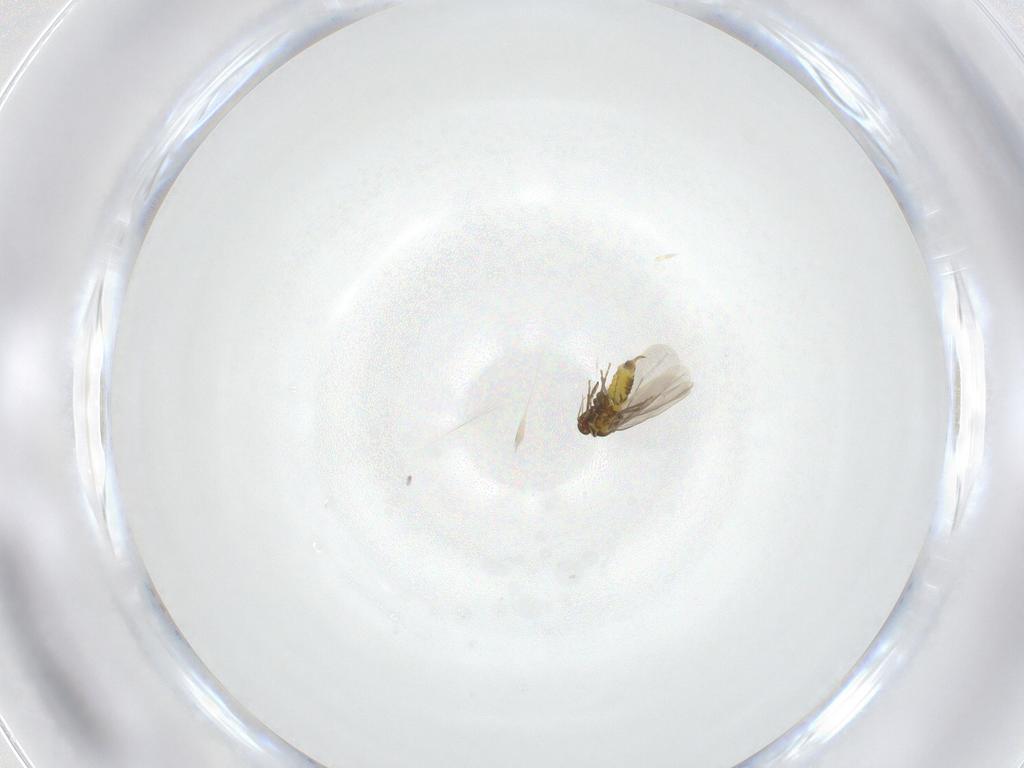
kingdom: Animalia
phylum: Arthropoda
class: Insecta
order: Hemiptera
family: Aleyrodidae
